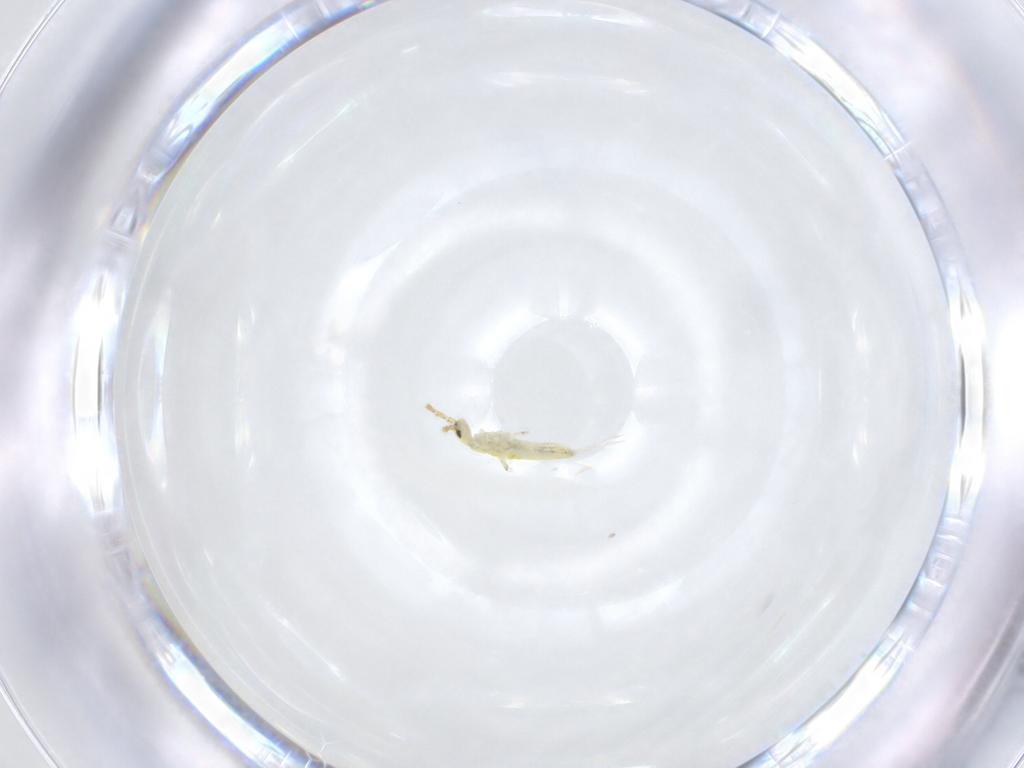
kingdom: Animalia
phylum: Arthropoda
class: Collembola
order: Entomobryomorpha
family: Entomobryidae
